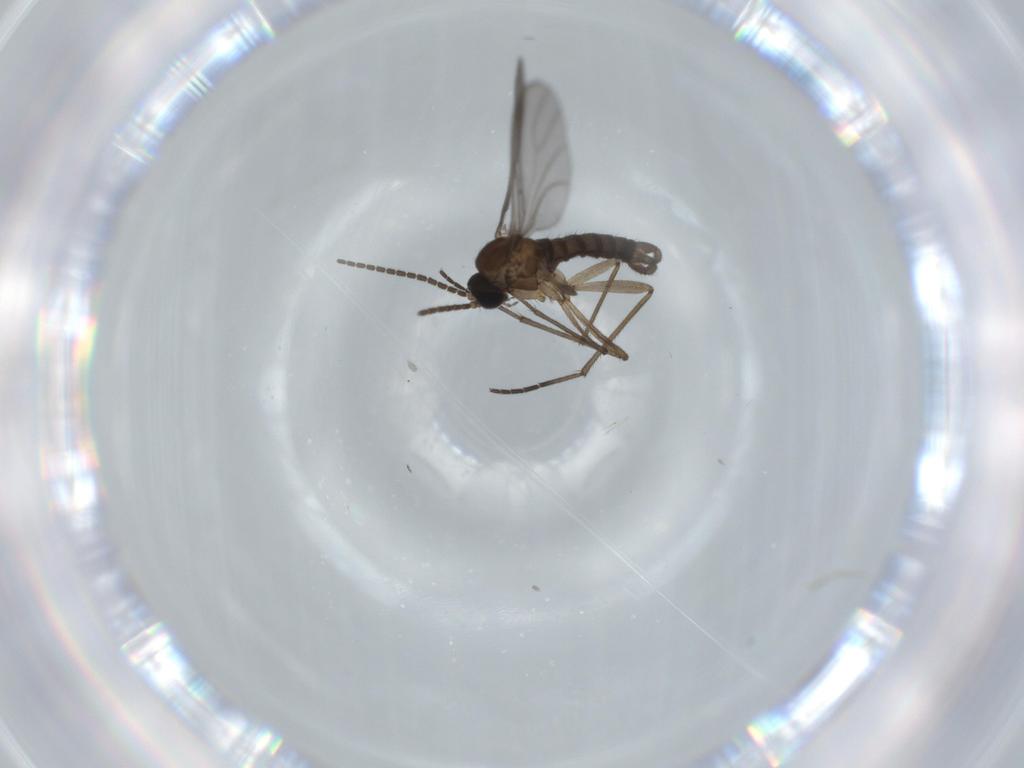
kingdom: Animalia
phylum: Arthropoda
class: Insecta
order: Diptera
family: Sciaridae
